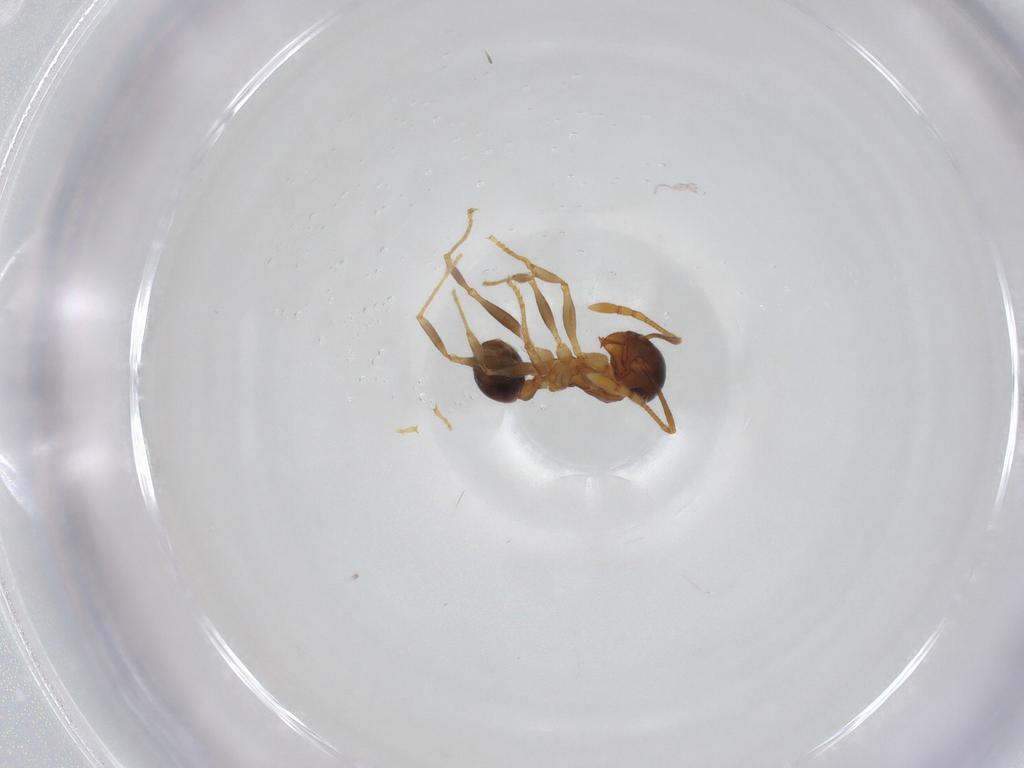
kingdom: Animalia
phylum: Arthropoda
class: Insecta
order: Hymenoptera
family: Formicidae
